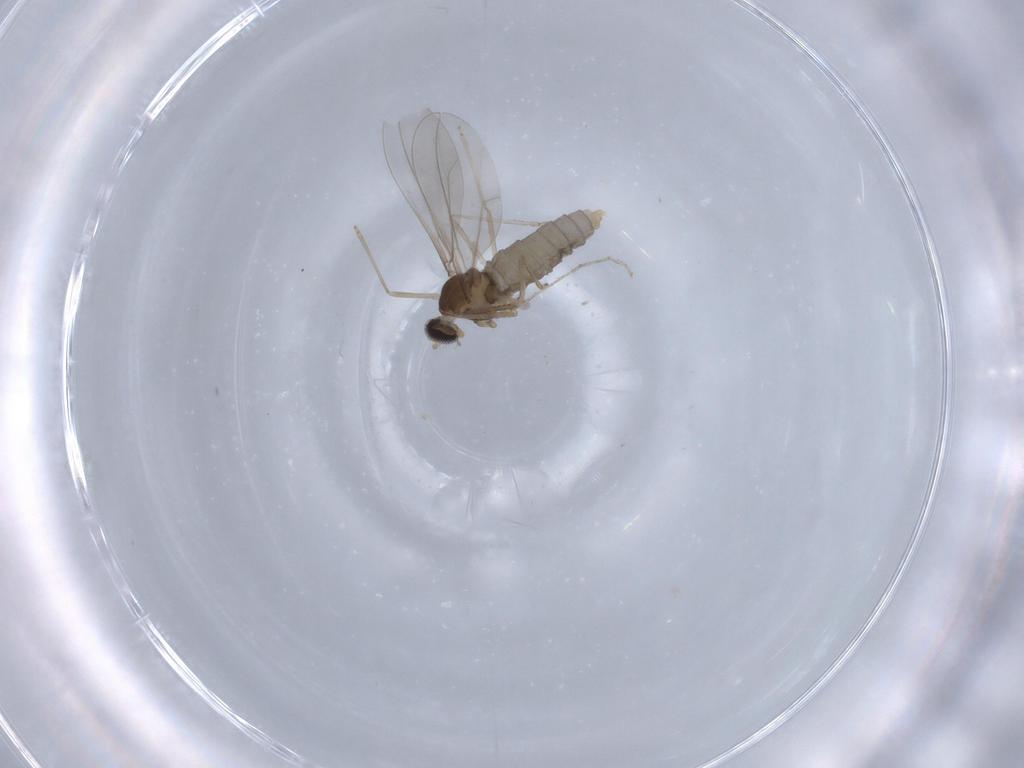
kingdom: Animalia
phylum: Arthropoda
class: Insecta
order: Diptera
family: Cecidomyiidae
